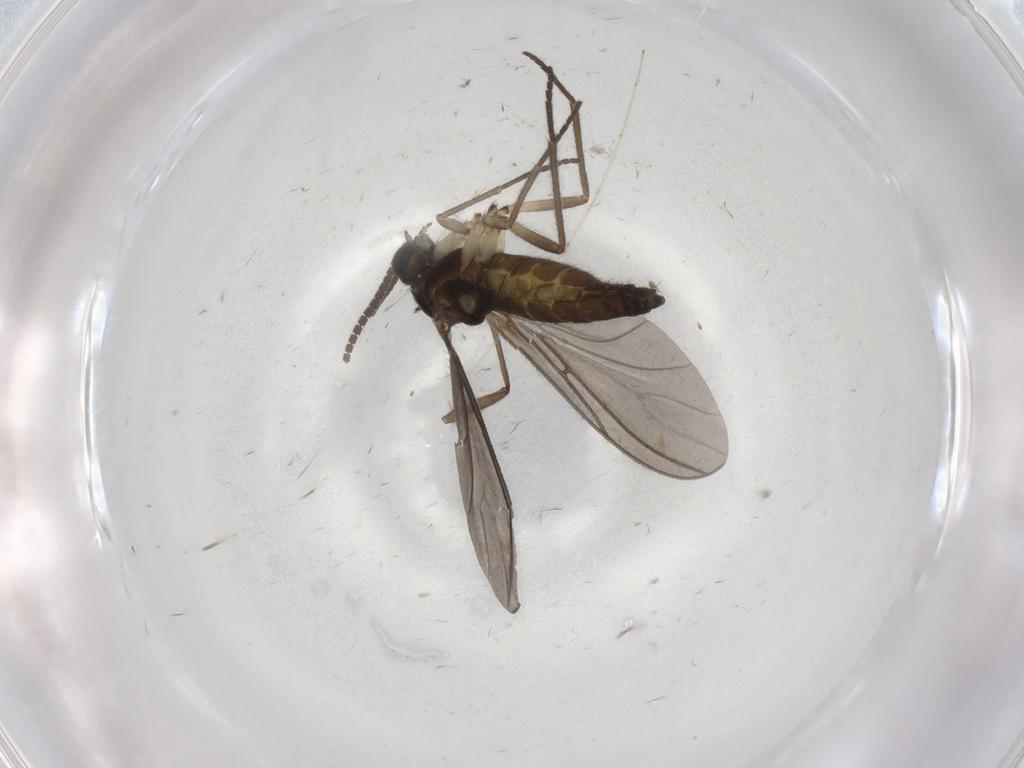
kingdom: Animalia
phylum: Arthropoda
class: Insecta
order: Diptera
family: Sciaridae
